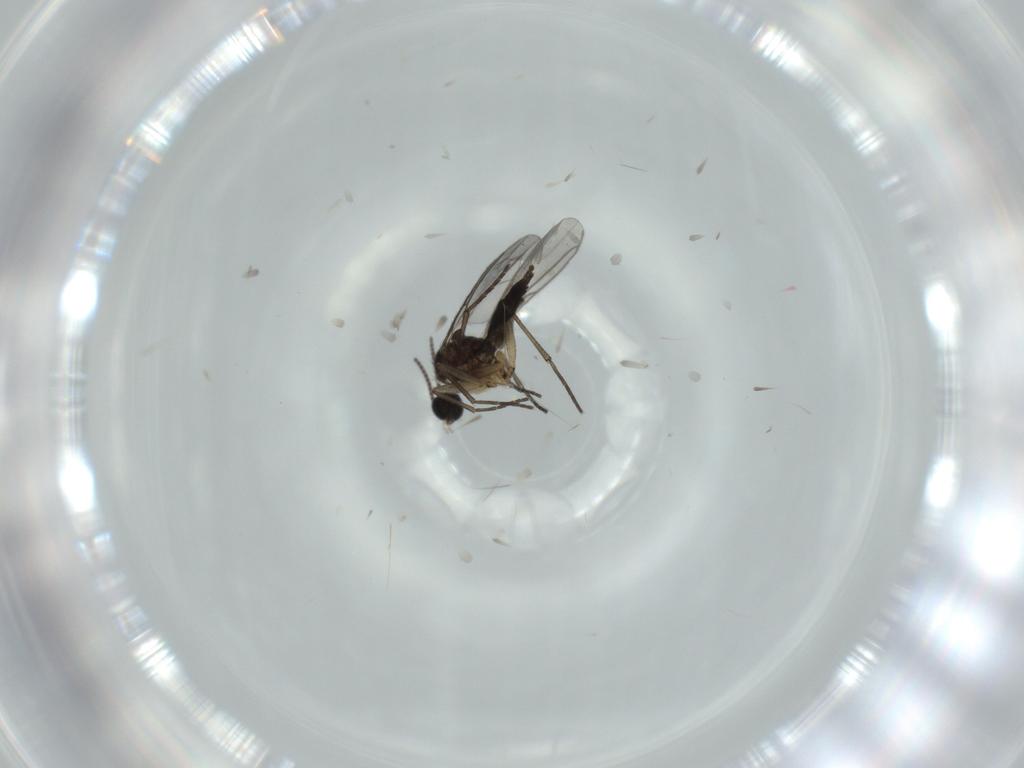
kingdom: Animalia
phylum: Arthropoda
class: Insecta
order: Diptera
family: Sciaridae
